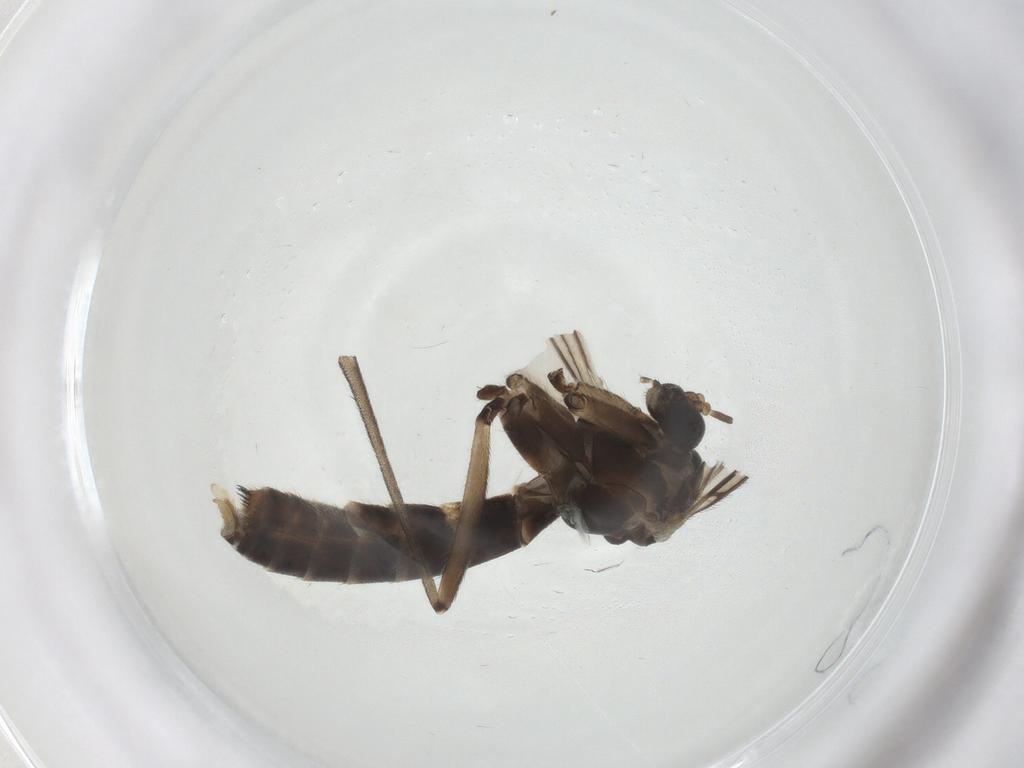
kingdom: Animalia
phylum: Arthropoda
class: Insecta
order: Diptera
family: Mycetophilidae
